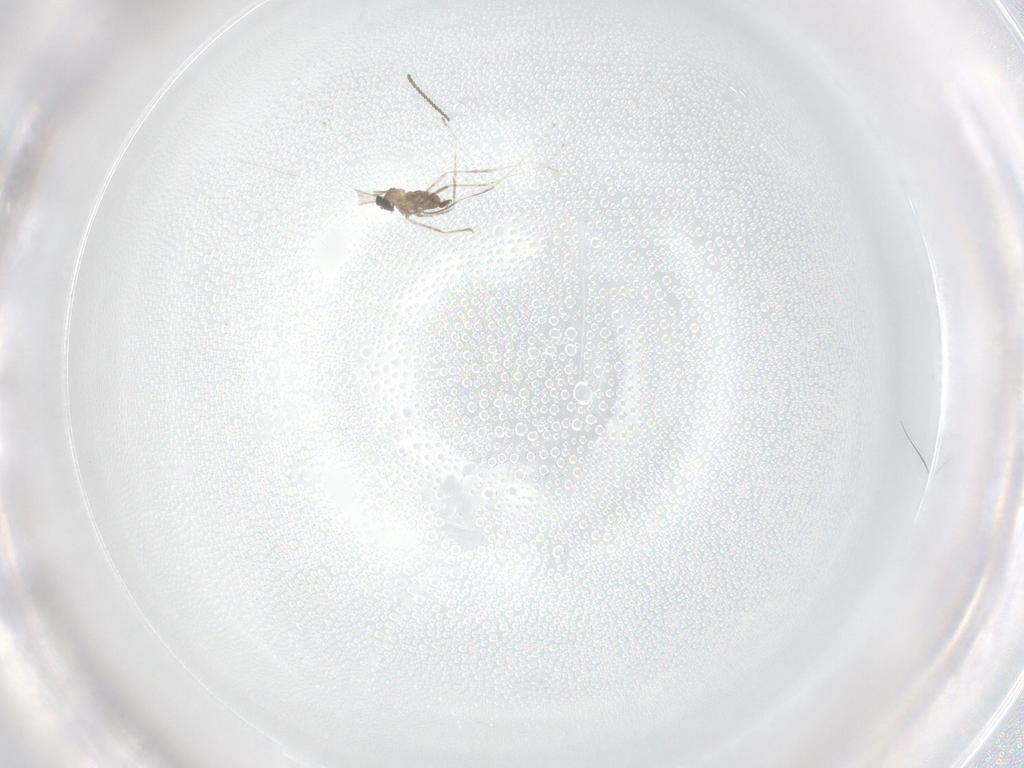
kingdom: Animalia
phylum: Arthropoda
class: Insecta
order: Diptera
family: Cecidomyiidae
